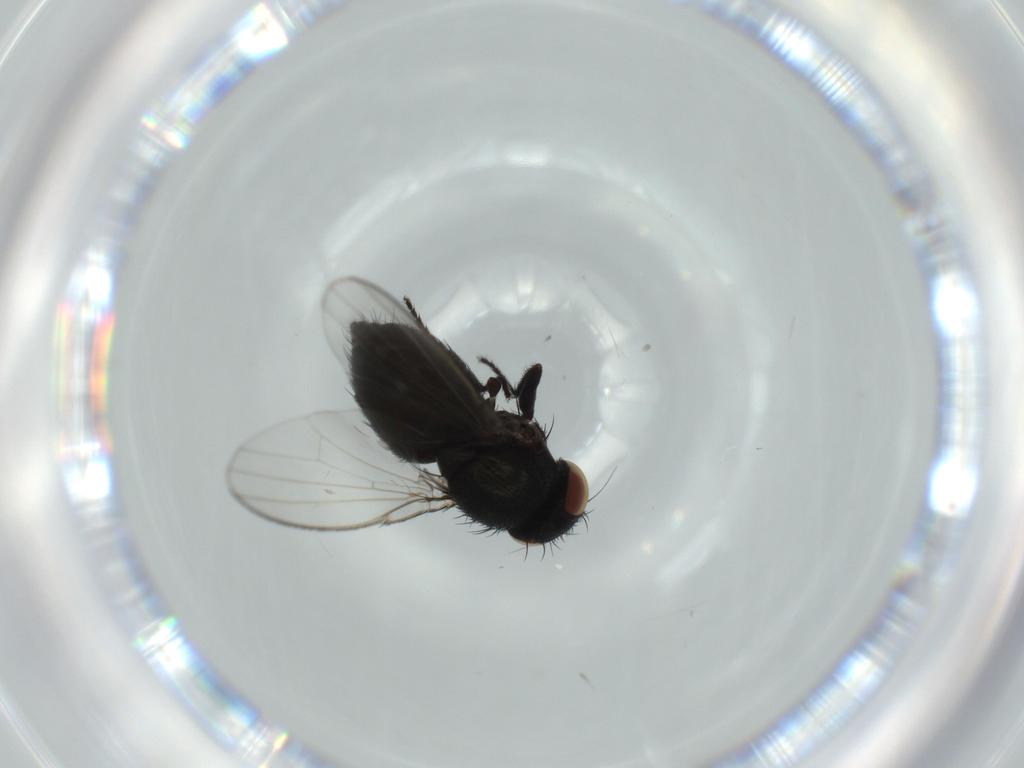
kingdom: Animalia
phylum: Arthropoda
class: Insecta
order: Diptera
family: Milichiidae
